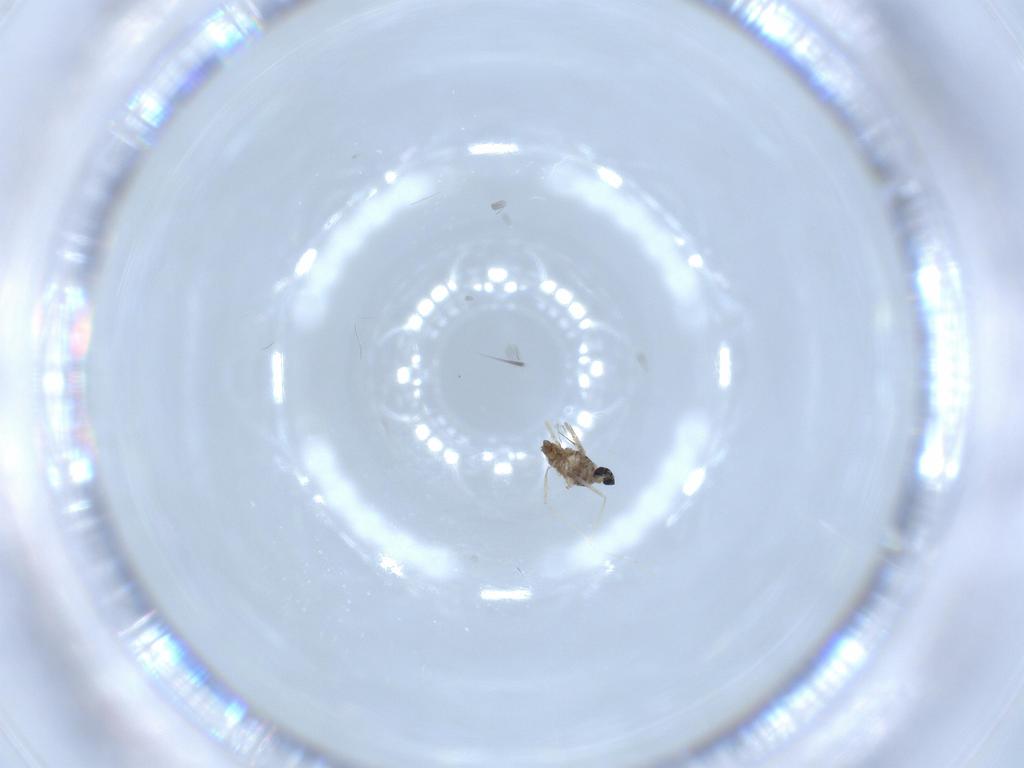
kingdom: Animalia
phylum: Arthropoda
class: Insecta
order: Diptera
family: Cecidomyiidae
